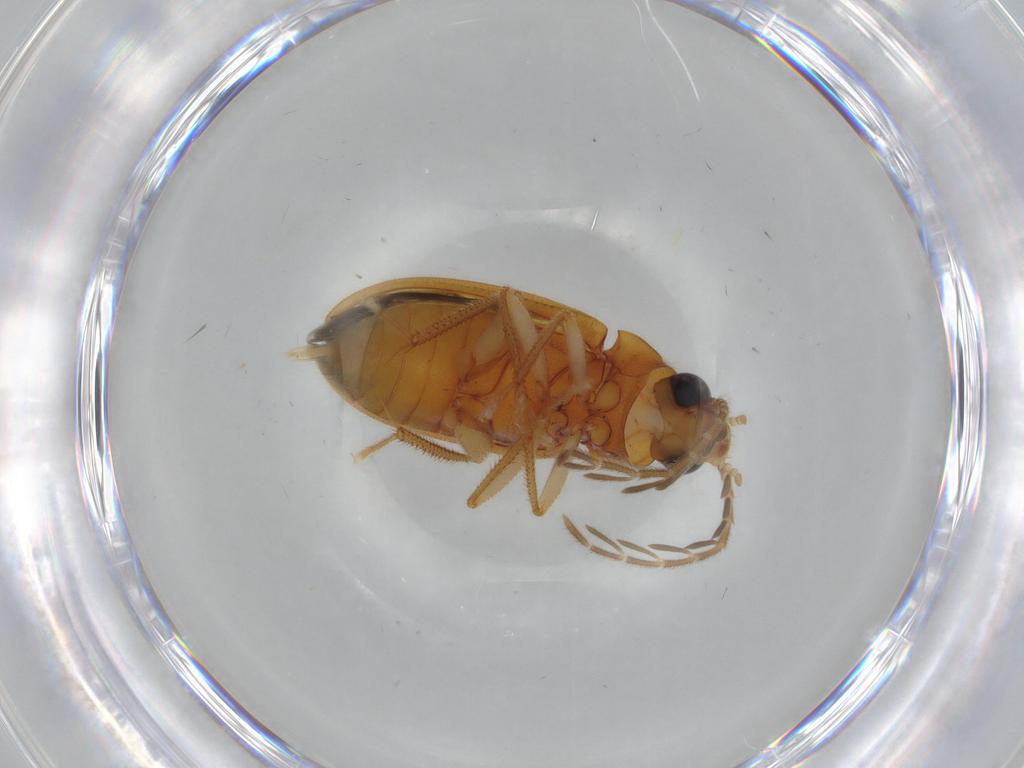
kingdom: Animalia
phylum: Arthropoda
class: Insecta
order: Coleoptera
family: Ptilodactylidae
